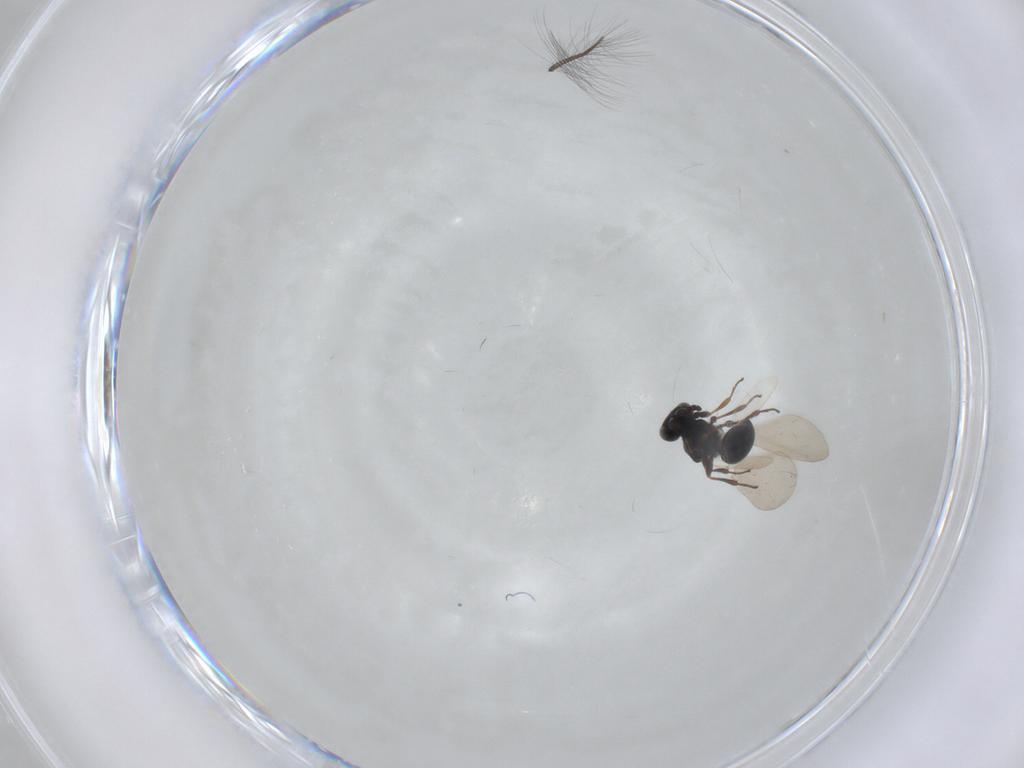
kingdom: Animalia
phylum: Arthropoda
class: Insecta
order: Hymenoptera
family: Platygastridae
